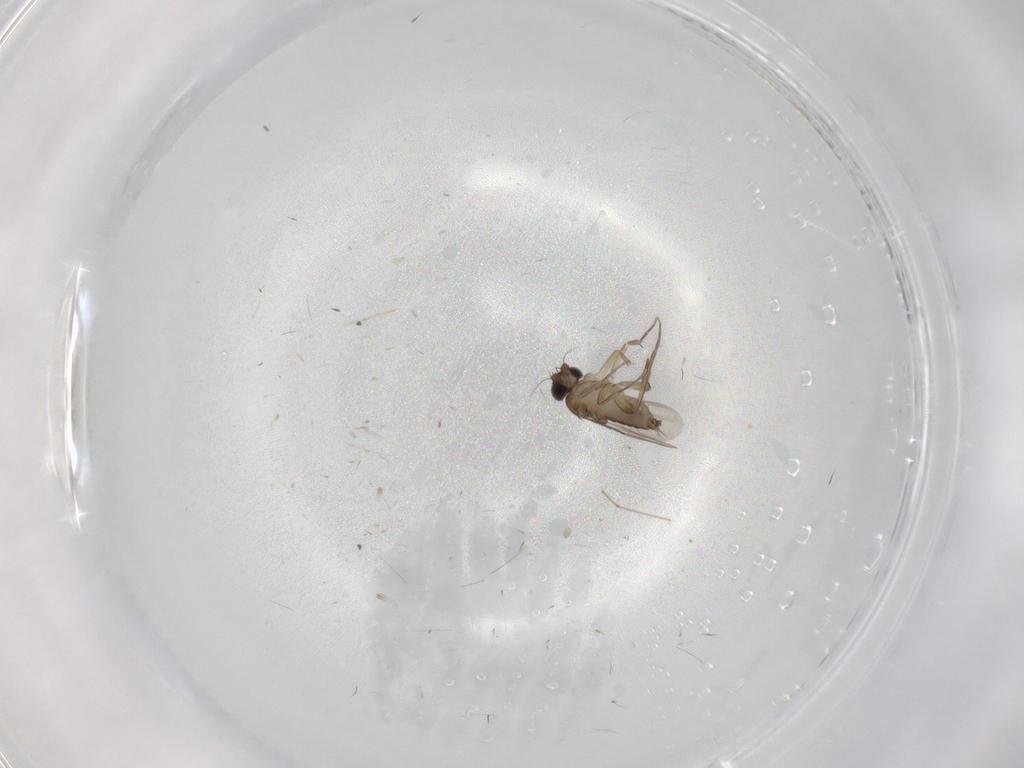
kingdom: Animalia
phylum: Arthropoda
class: Insecta
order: Diptera
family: Phoridae
